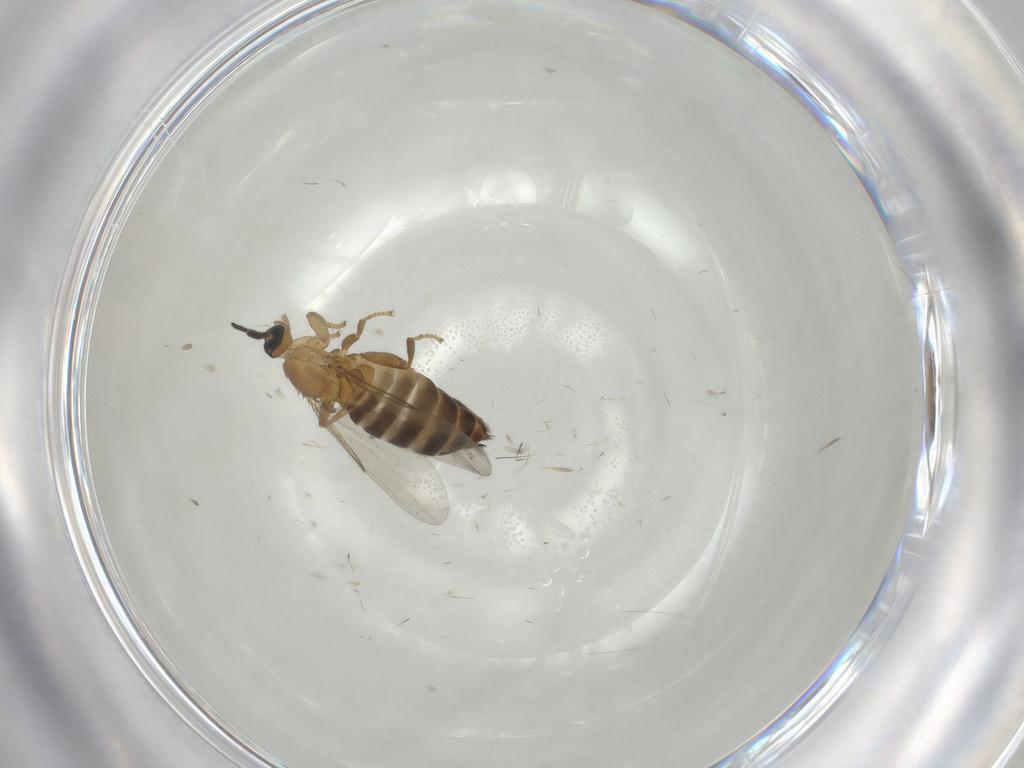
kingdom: Animalia
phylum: Arthropoda
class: Insecta
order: Diptera
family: Scatopsidae
